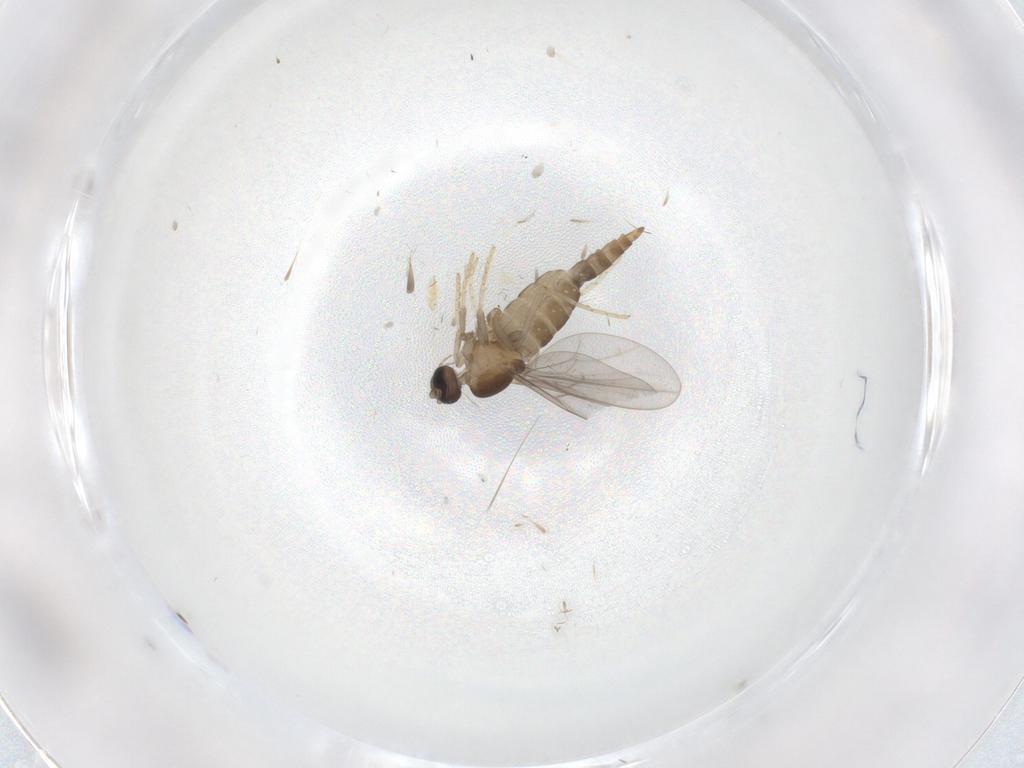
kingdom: Animalia
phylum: Arthropoda
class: Insecta
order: Diptera
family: Cecidomyiidae
